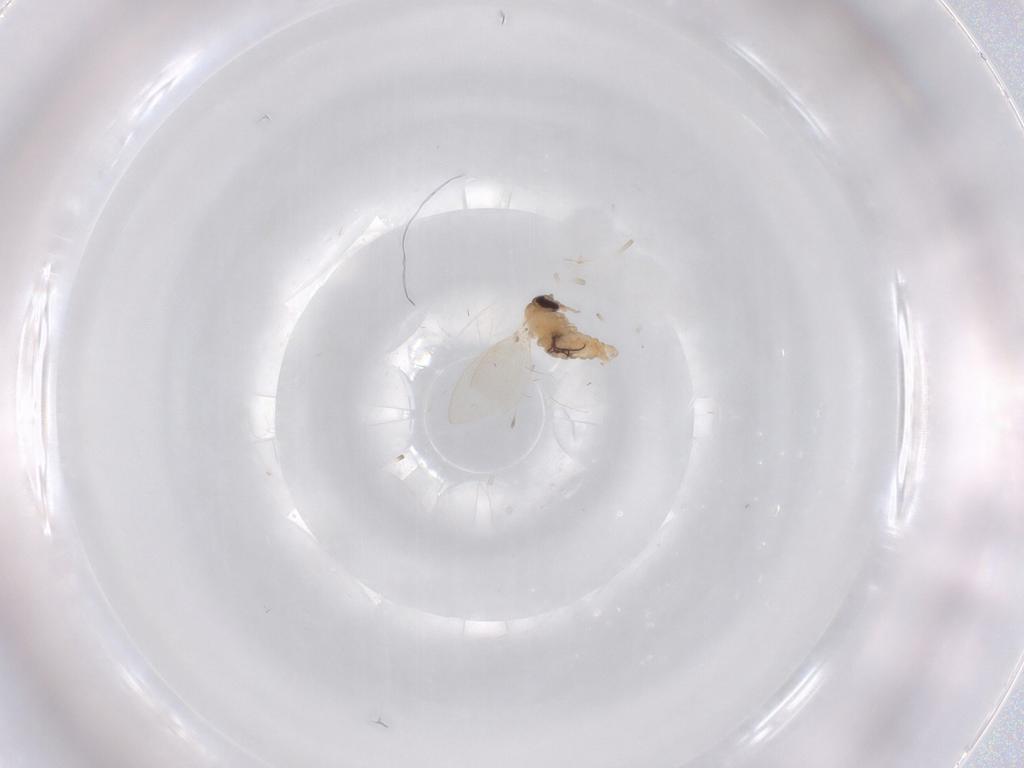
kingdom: Animalia
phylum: Arthropoda
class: Insecta
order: Diptera
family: Psychodidae
